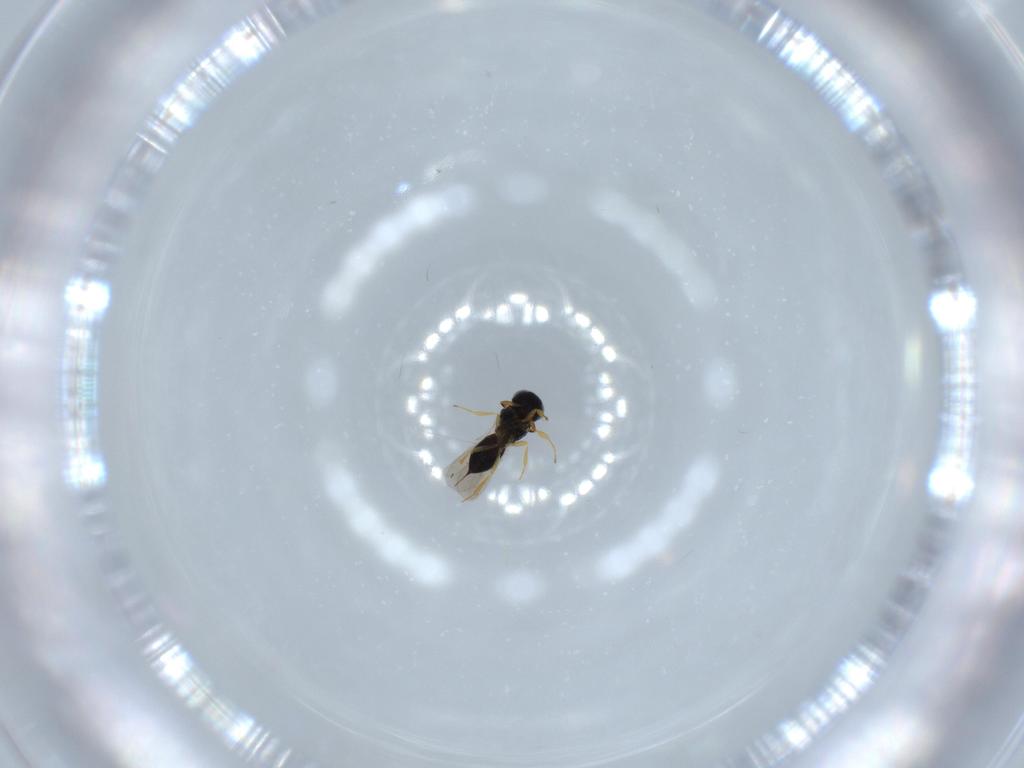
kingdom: Animalia
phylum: Arthropoda
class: Insecta
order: Hymenoptera
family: Scelionidae
